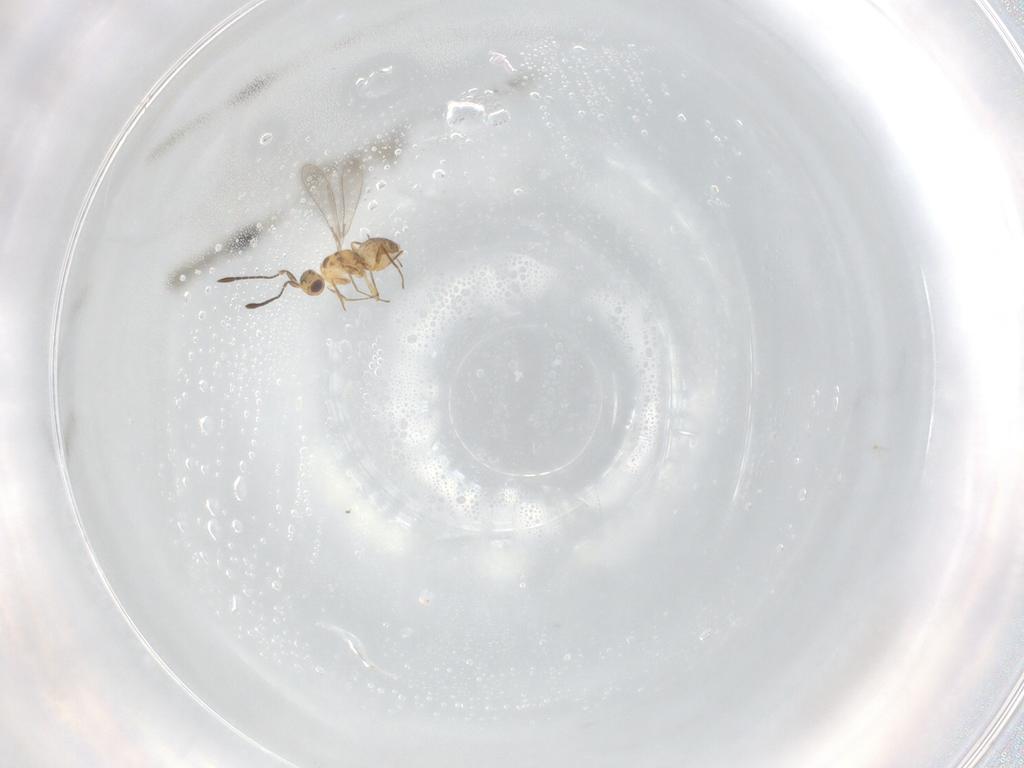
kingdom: Animalia
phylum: Arthropoda
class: Insecta
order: Hymenoptera
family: Mymaridae
